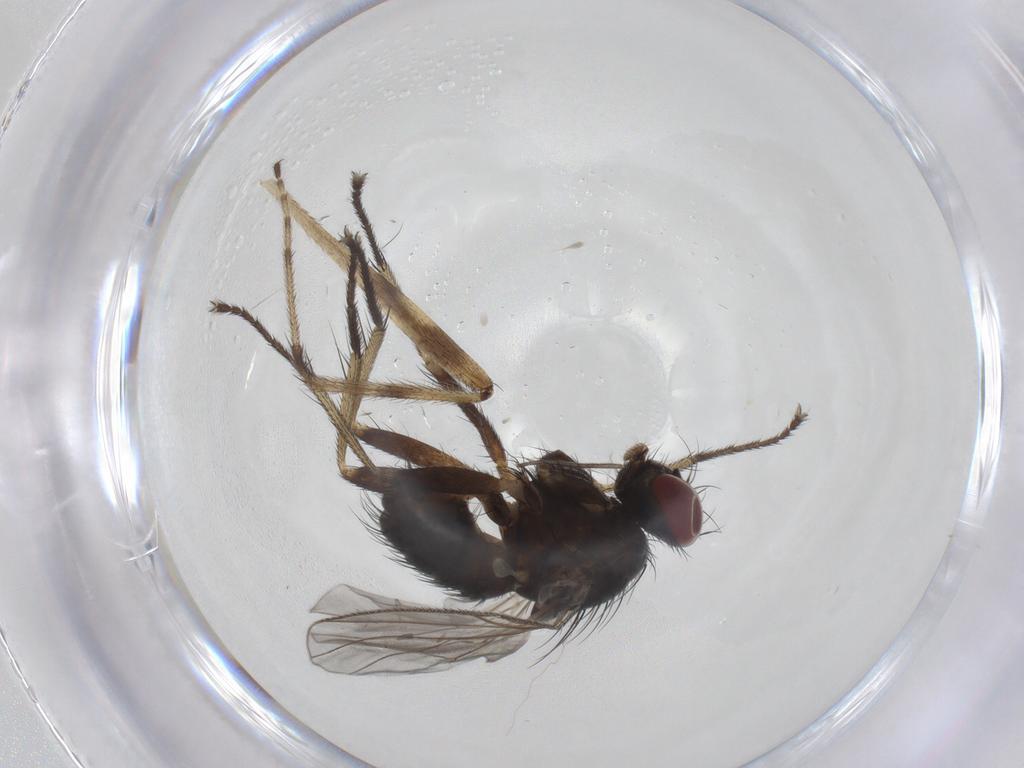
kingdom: Animalia
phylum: Arthropoda
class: Insecta
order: Diptera
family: Muscidae
